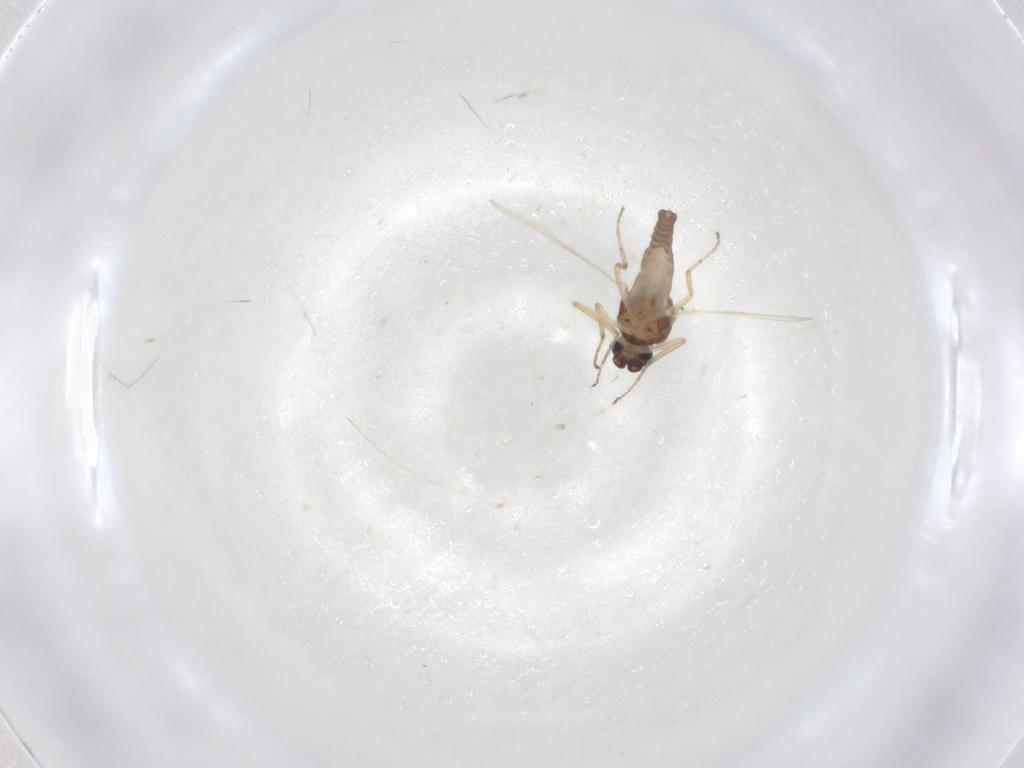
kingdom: Animalia
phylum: Arthropoda
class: Insecta
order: Diptera
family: Ceratopogonidae
